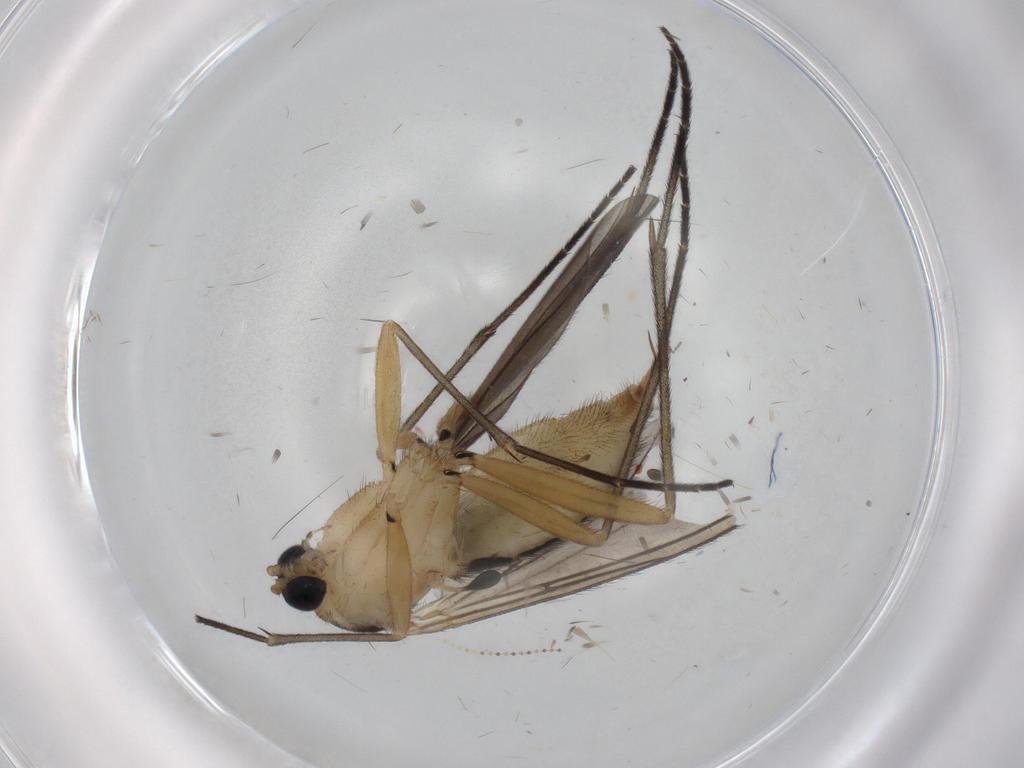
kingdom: Animalia
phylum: Arthropoda
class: Insecta
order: Diptera
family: Sciaridae
